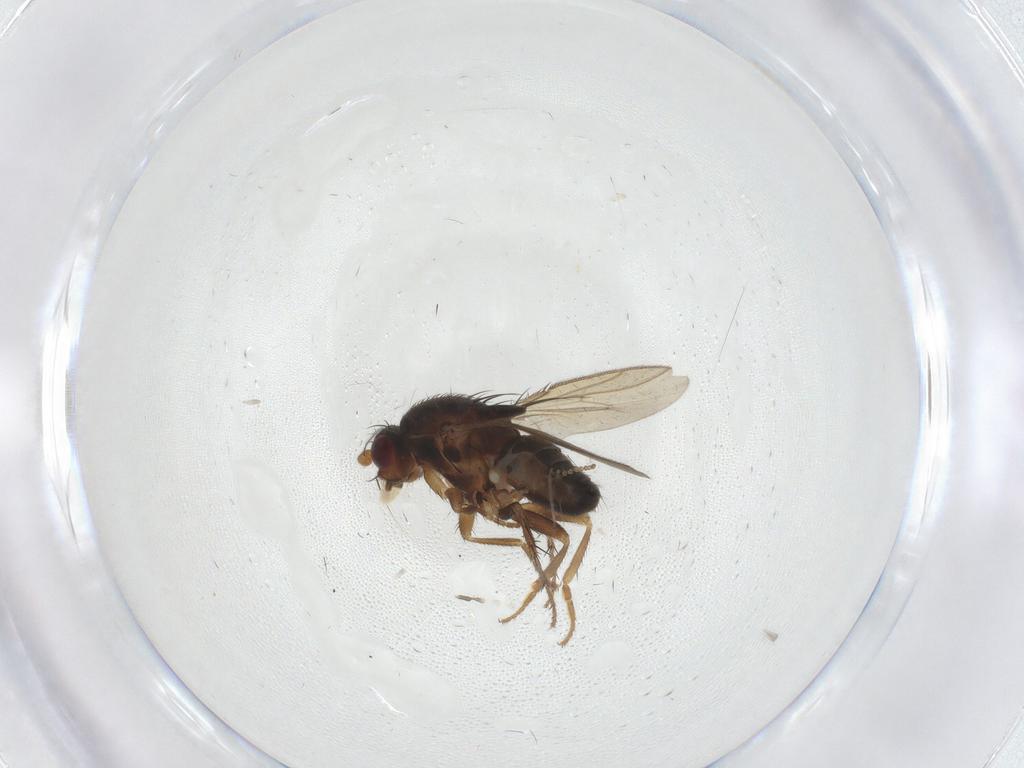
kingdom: Animalia
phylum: Arthropoda
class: Insecta
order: Diptera
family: Sphaeroceridae
